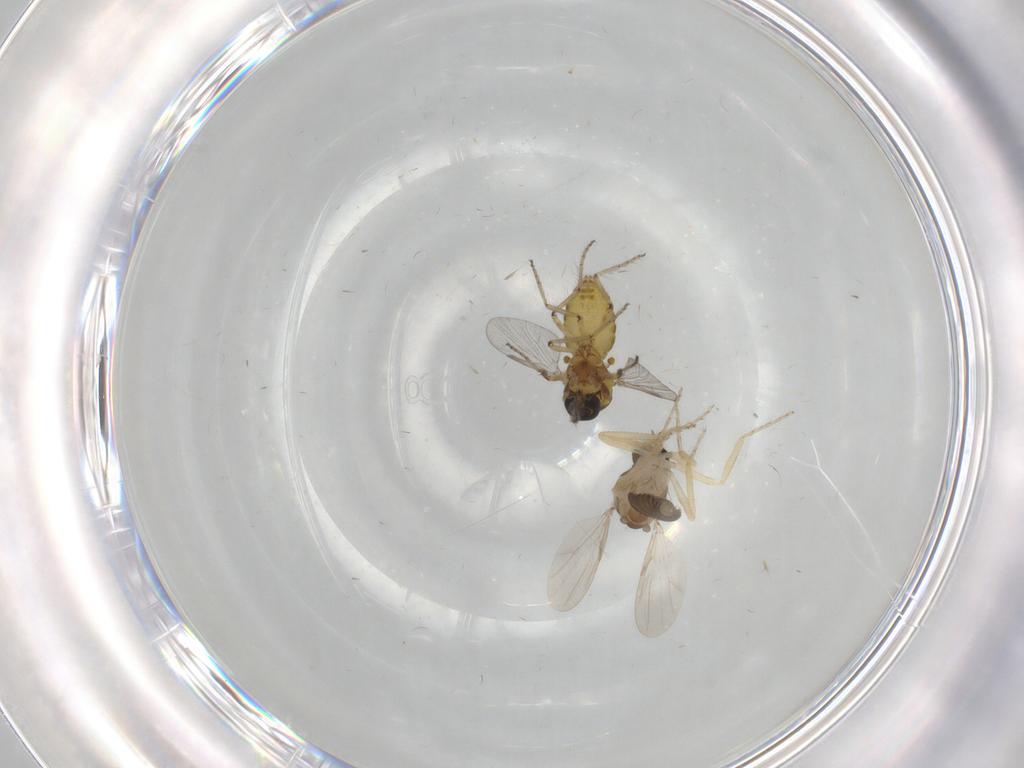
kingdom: Animalia
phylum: Arthropoda
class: Insecta
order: Diptera
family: Ceratopogonidae
